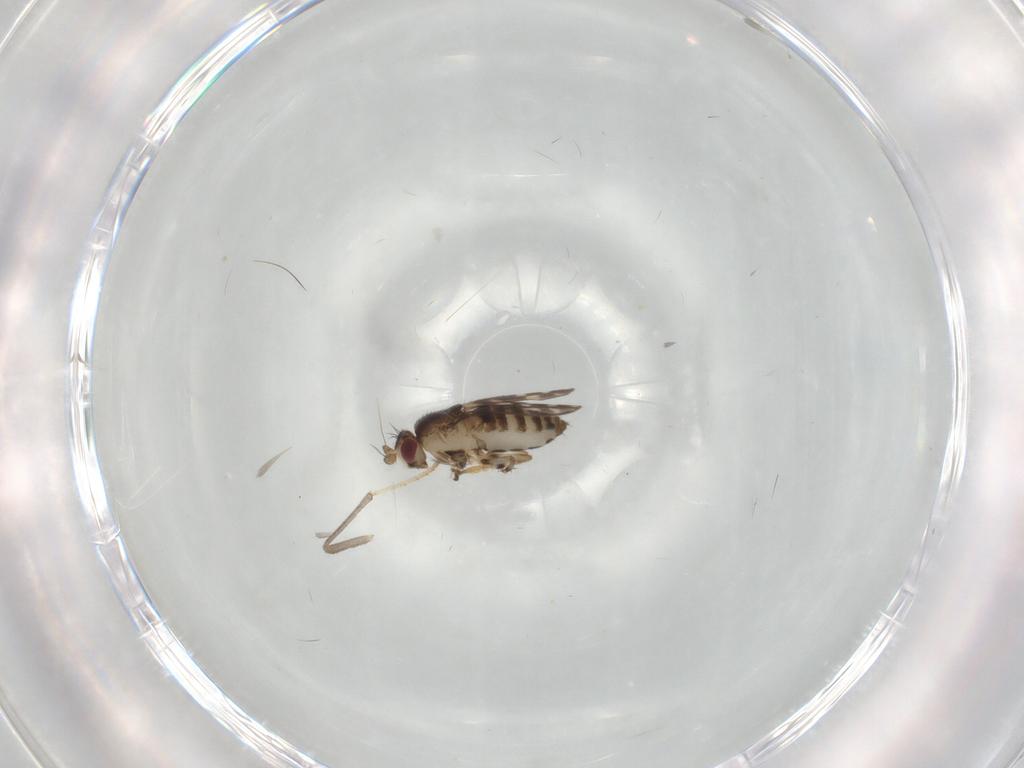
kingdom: Animalia
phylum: Arthropoda
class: Insecta
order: Diptera
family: Sphaeroceridae
